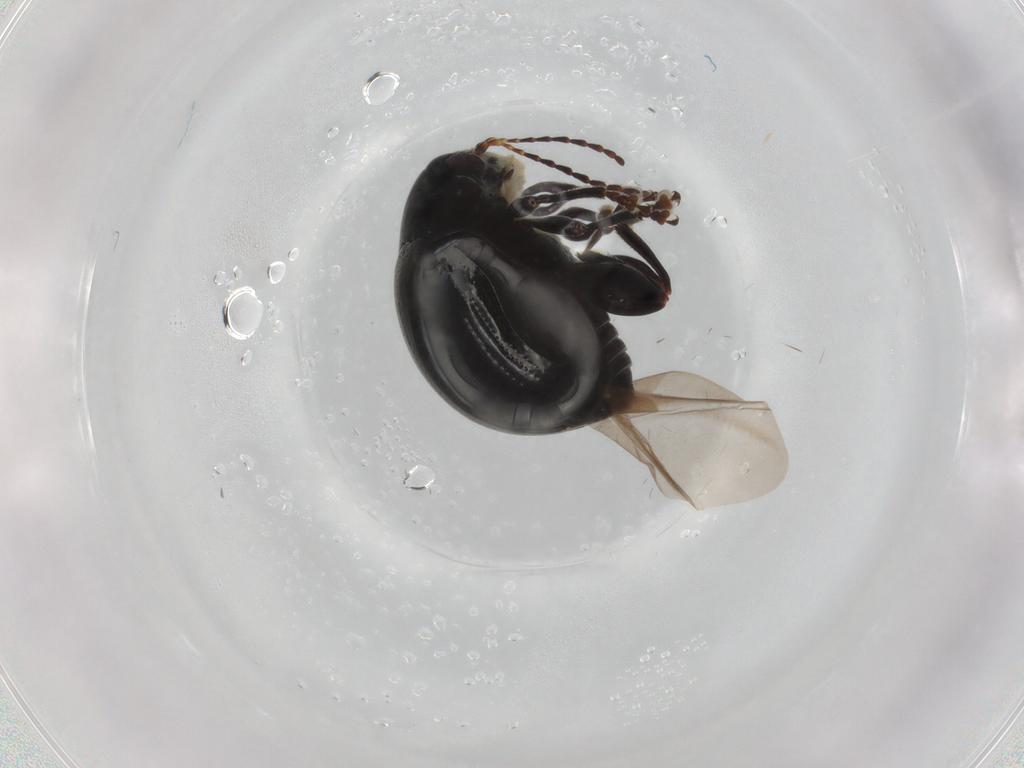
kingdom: Animalia
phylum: Arthropoda
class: Insecta
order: Coleoptera
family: Chrysomelidae
